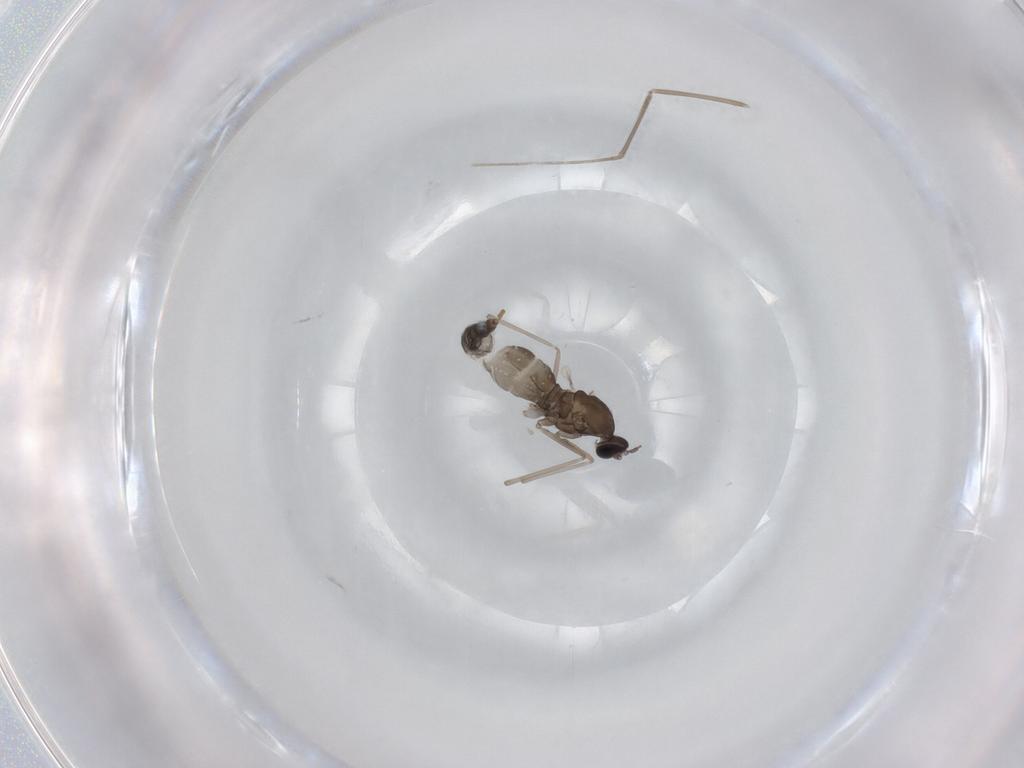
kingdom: Animalia
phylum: Arthropoda
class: Insecta
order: Diptera
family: Cecidomyiidae
